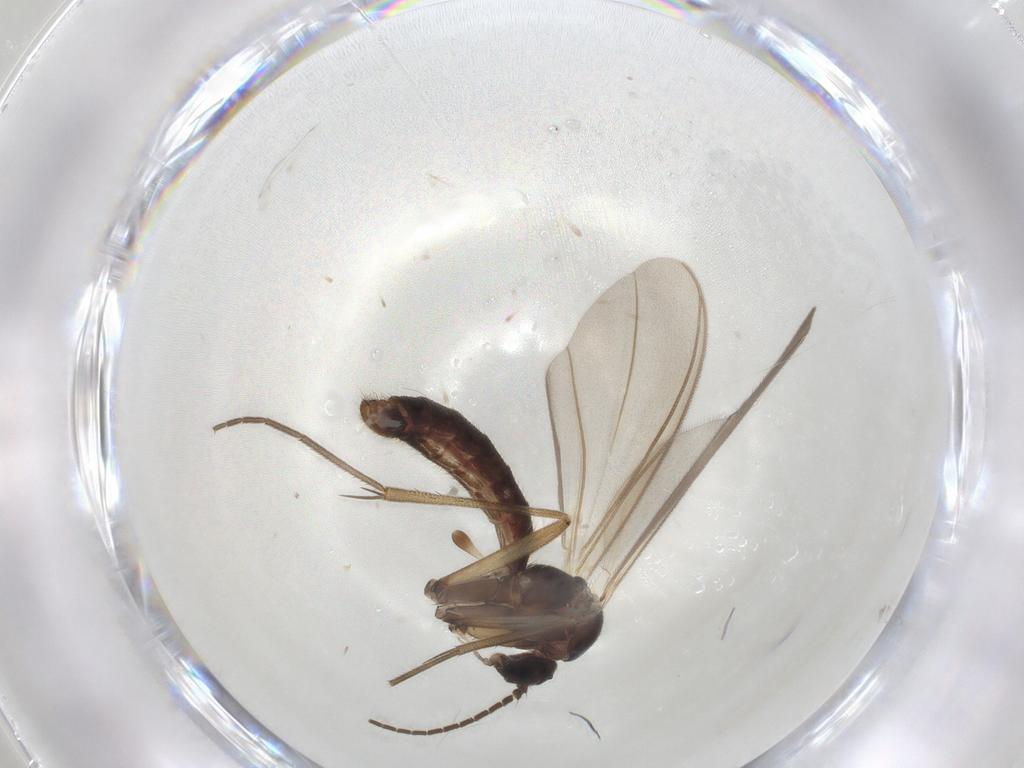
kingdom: Animalia
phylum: Arthropoda
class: Insecta
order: Diptera
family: Mycetophilidae
